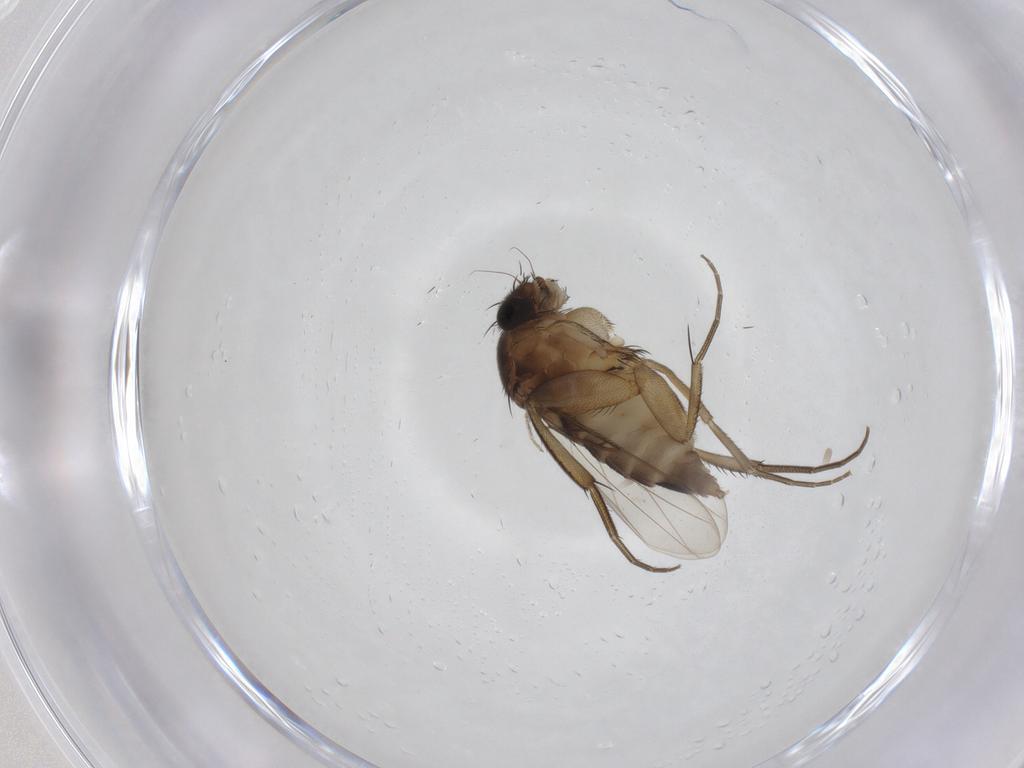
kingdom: Animalia
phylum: Arthropoda
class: Insecta
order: Diptera
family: Phoridae
